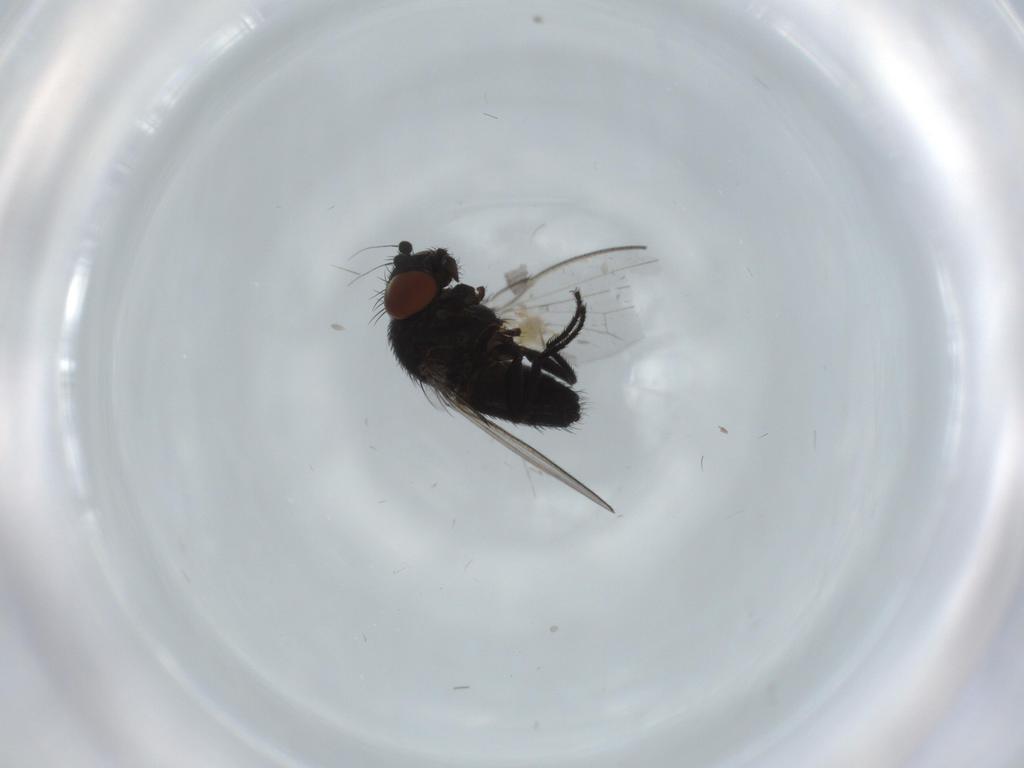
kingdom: Animalia
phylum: Arthropoda
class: Insecta
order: Diptera
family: Milichiidae
